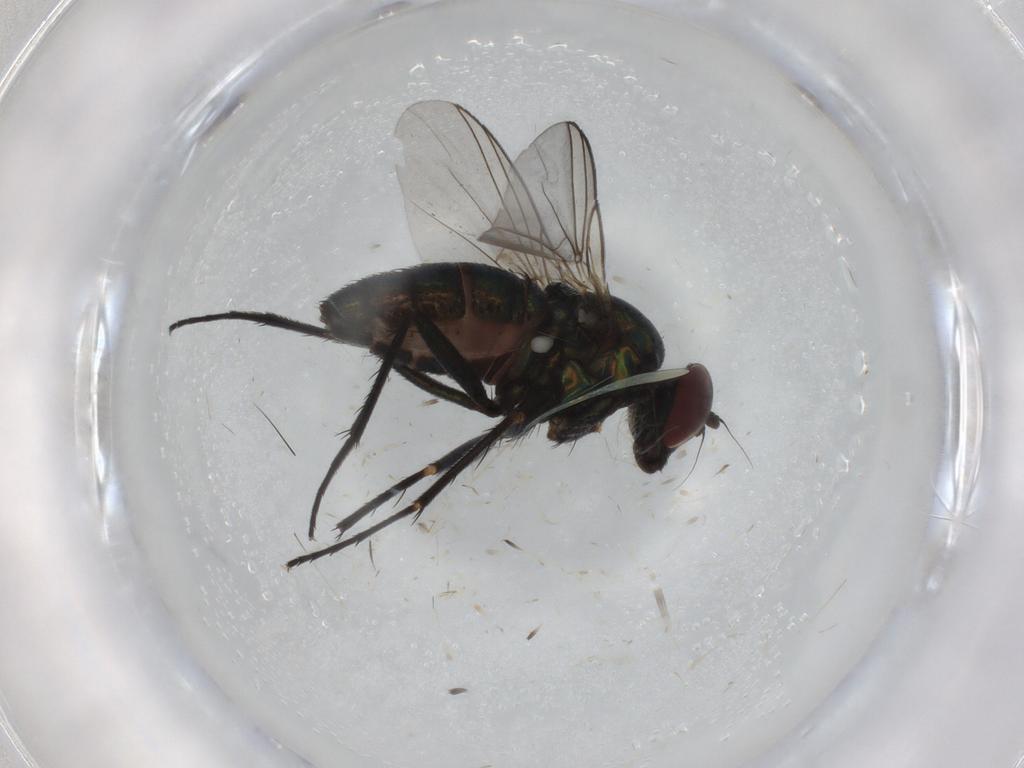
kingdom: Animalia
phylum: Arthropoda
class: Insecta
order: Diptera
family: Dolichopodidae
